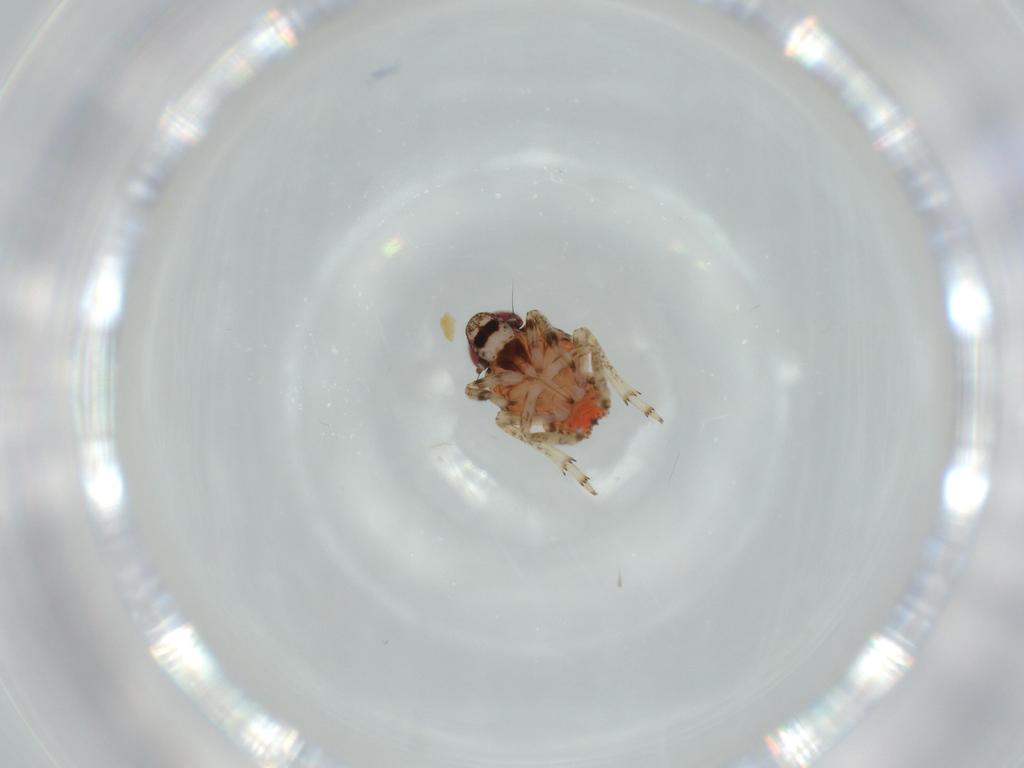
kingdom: Animalia
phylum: Arthropoda
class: Insecta
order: Hemiptera
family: Issidae
